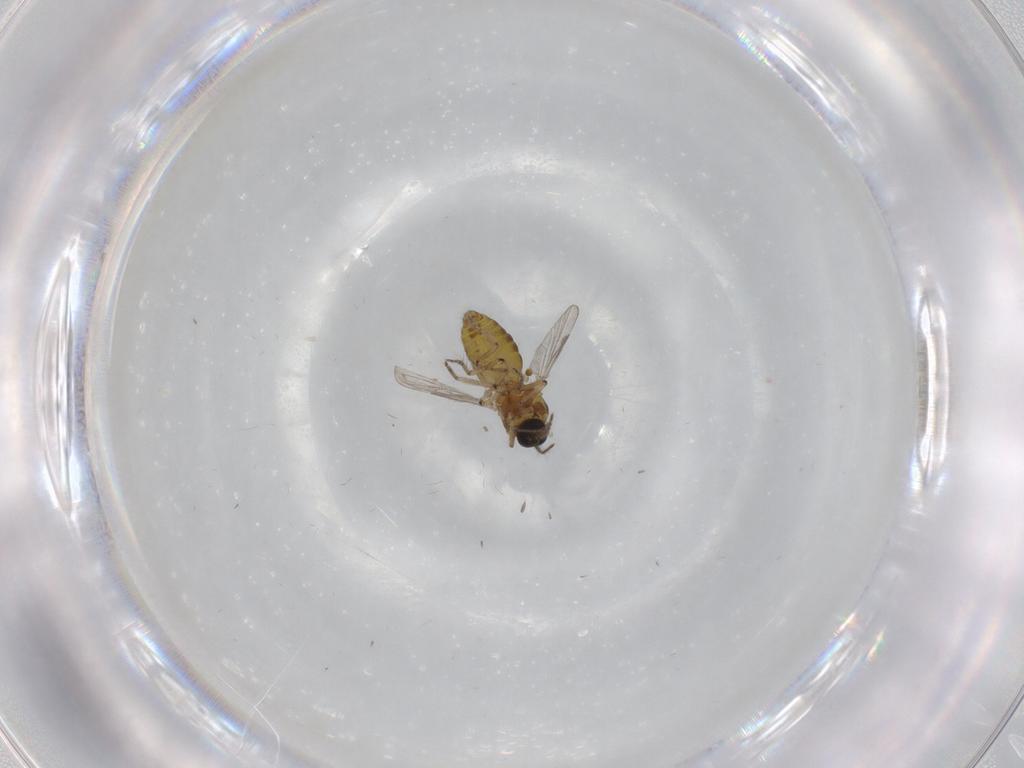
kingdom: Animalia
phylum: Arthropoda
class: Insecta
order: Diptera
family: Ceratopogonidae
